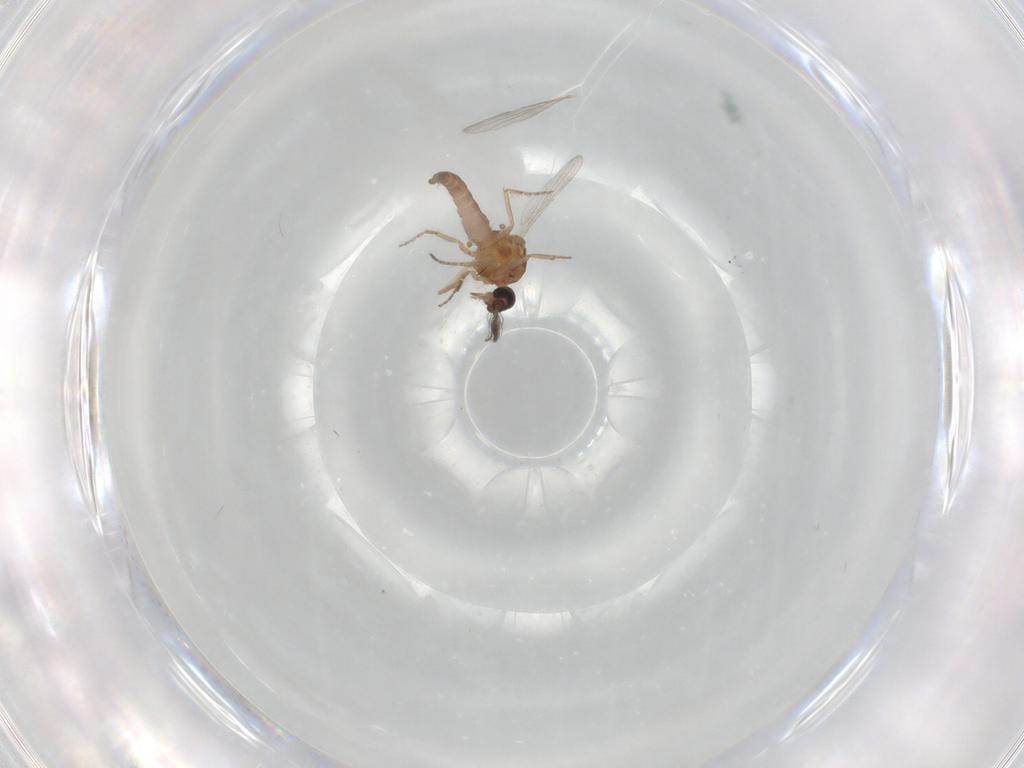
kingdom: Animalia
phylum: Arthropoda
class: Insecta
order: Diptera
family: Ceratopogonidae
